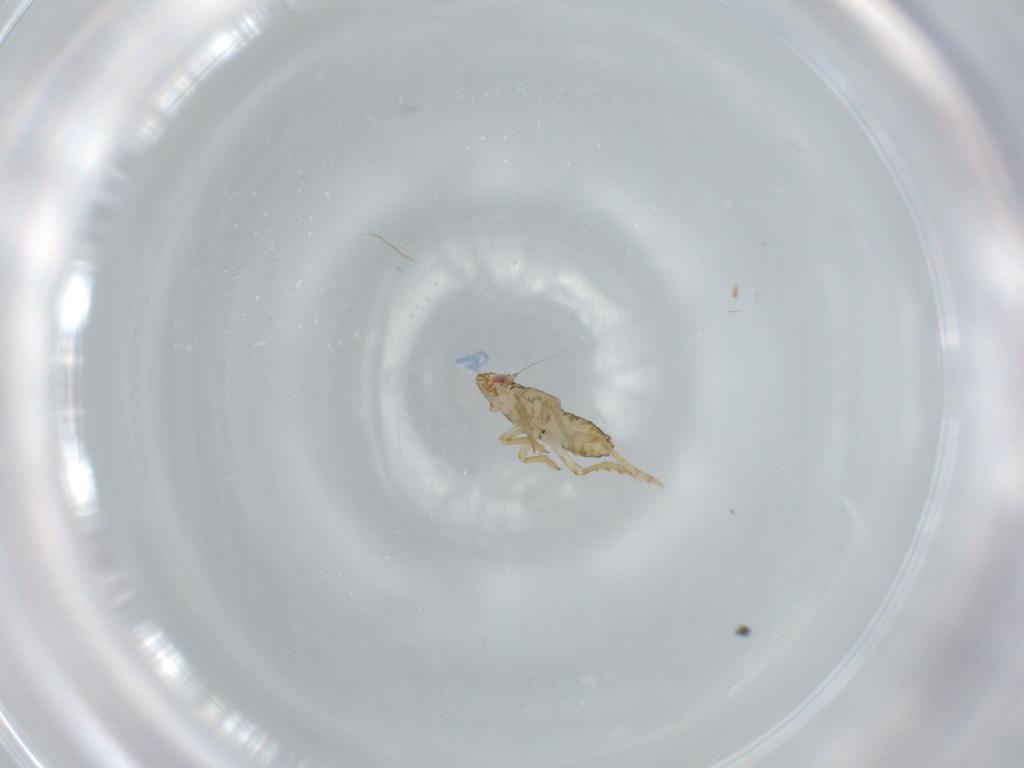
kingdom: Animalia
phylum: Arthropoda
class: Insecta
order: Hemiptera
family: Delphacidae
